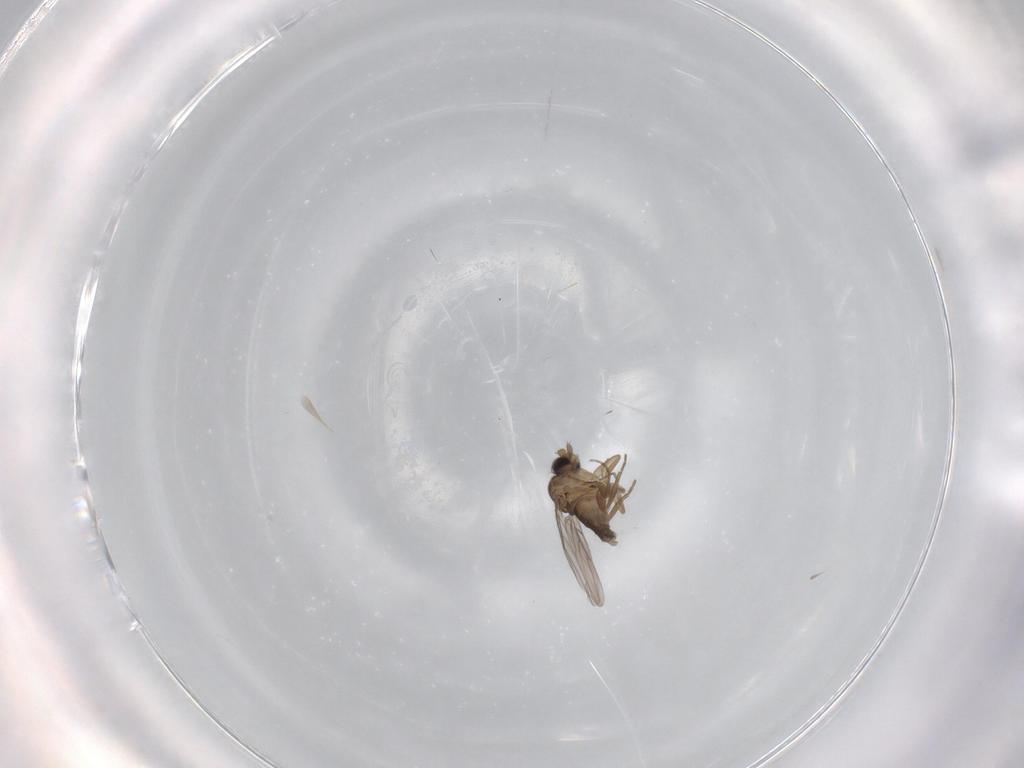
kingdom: Animalia
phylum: Arthropoda
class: Insecta
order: Diptera
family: Phoridae
